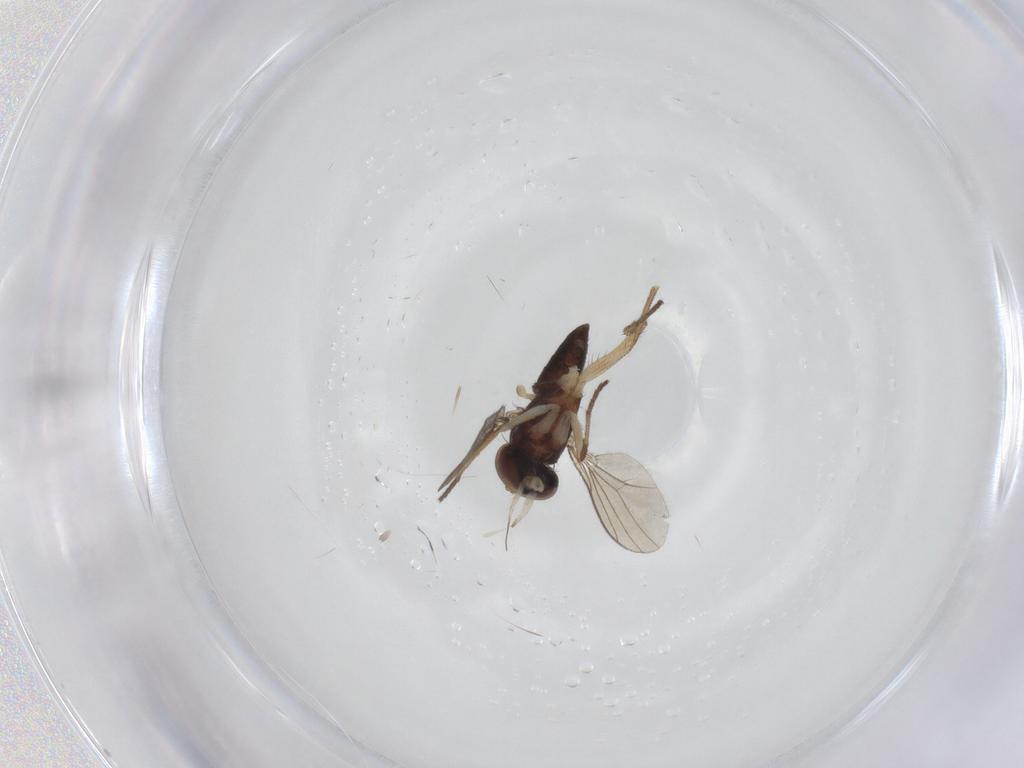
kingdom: Animalia
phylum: Arthropoda
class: Insecta
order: Diptera
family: Dolichopodidae
